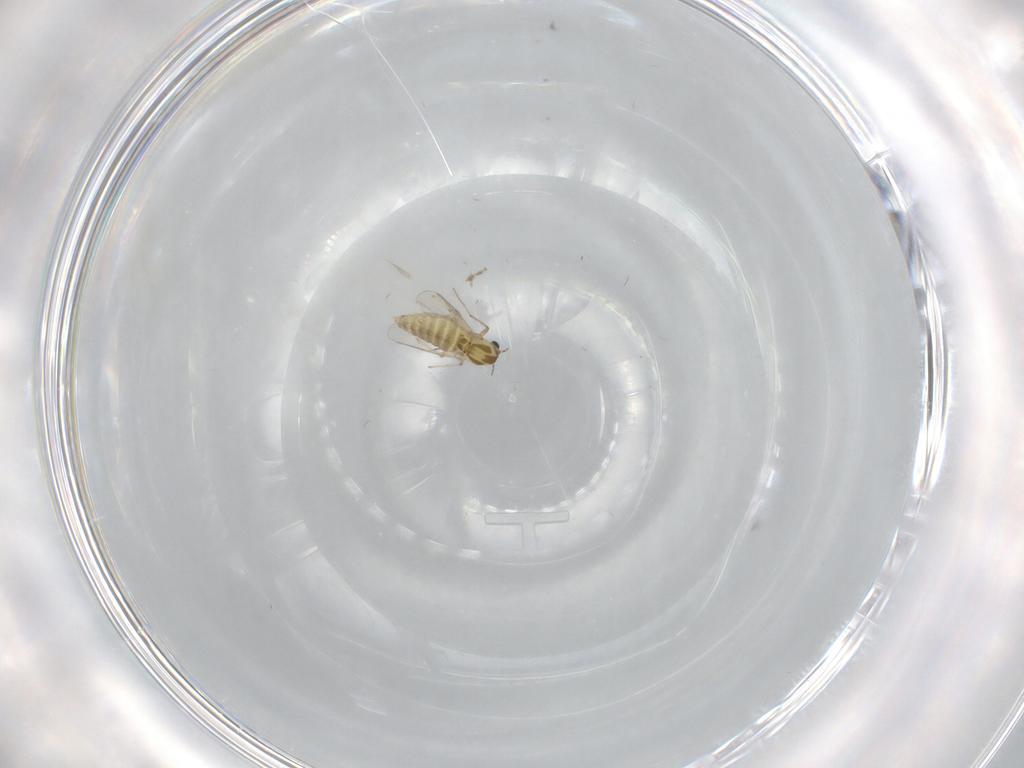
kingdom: Animalia
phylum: Arthropoda
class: Insecta
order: Diptera
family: Chironomidae
